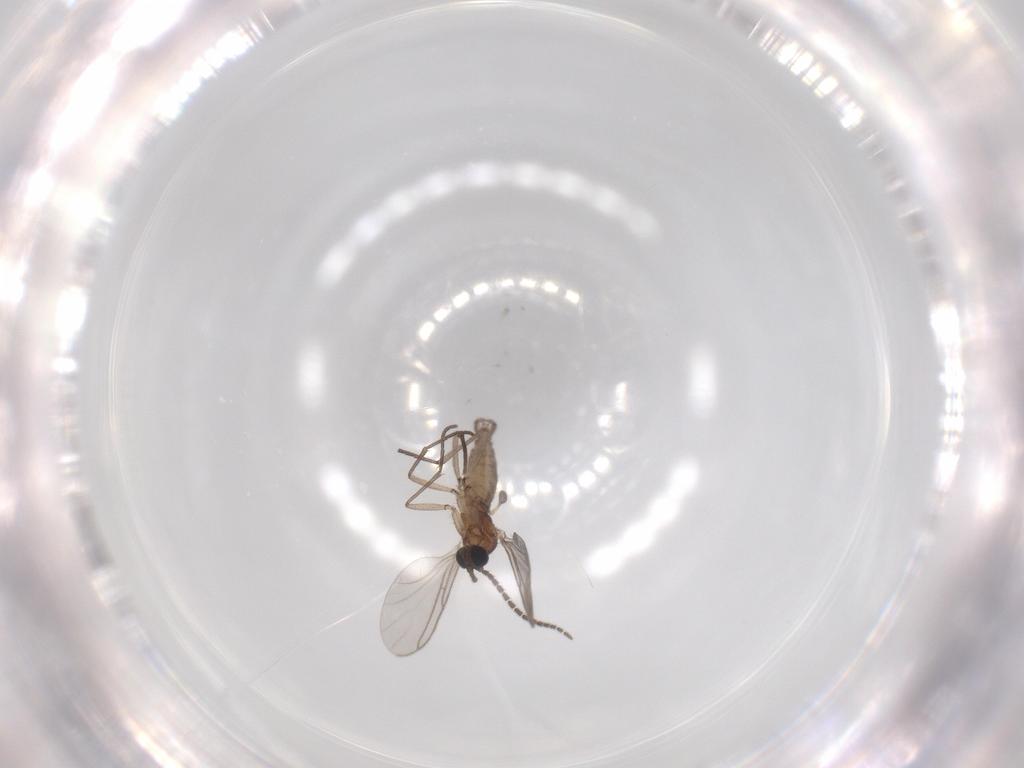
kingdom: Animalia
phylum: Arthropoda
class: Insecta
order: Diptera
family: Sciaridae
